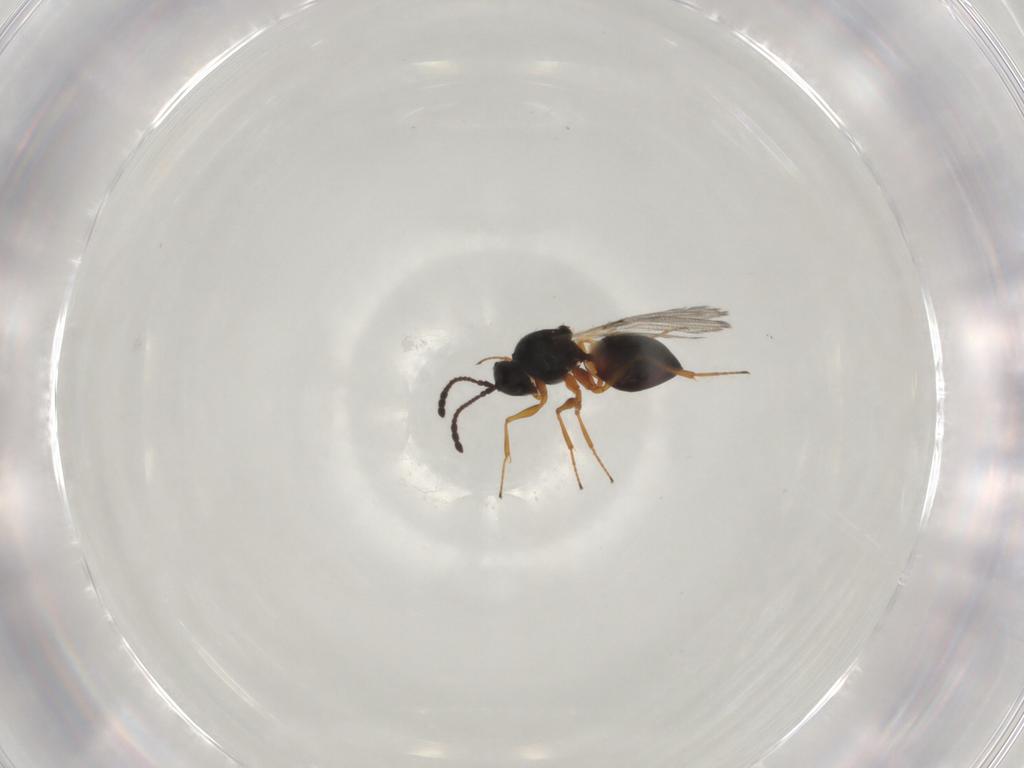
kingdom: Animalia
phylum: Arthropoda
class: Insecta
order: Hymenoptera
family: Figitidae
